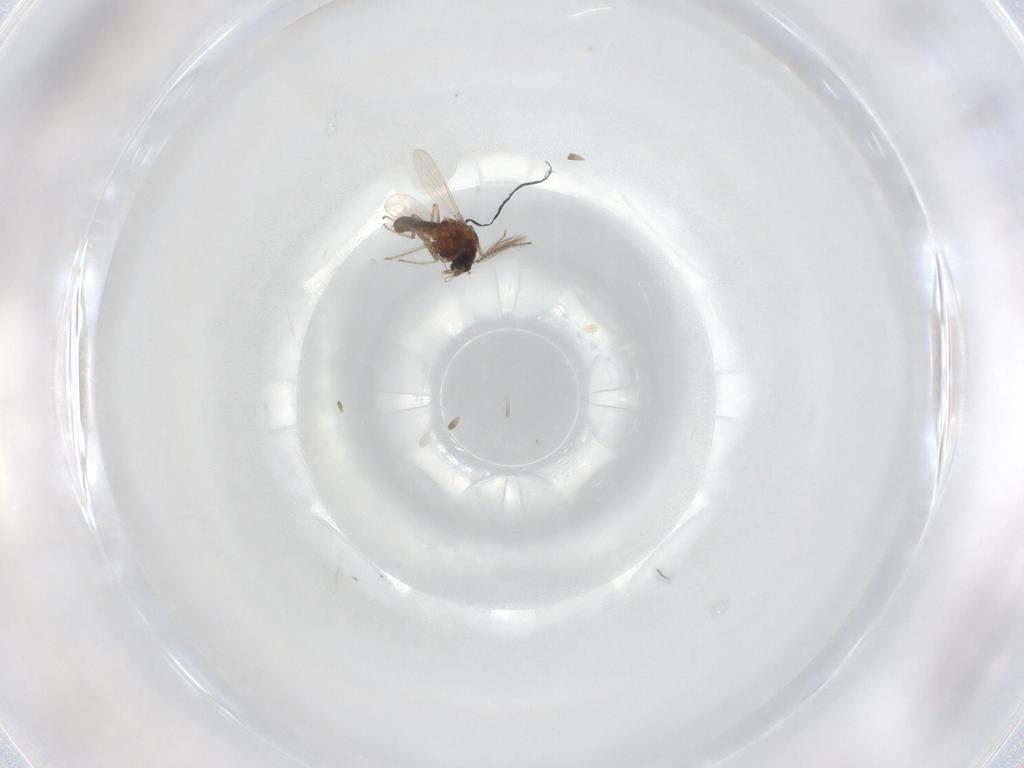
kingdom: Animalia
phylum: Arthropoda
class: Insecta
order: Diptera
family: Ceratopogonidae
